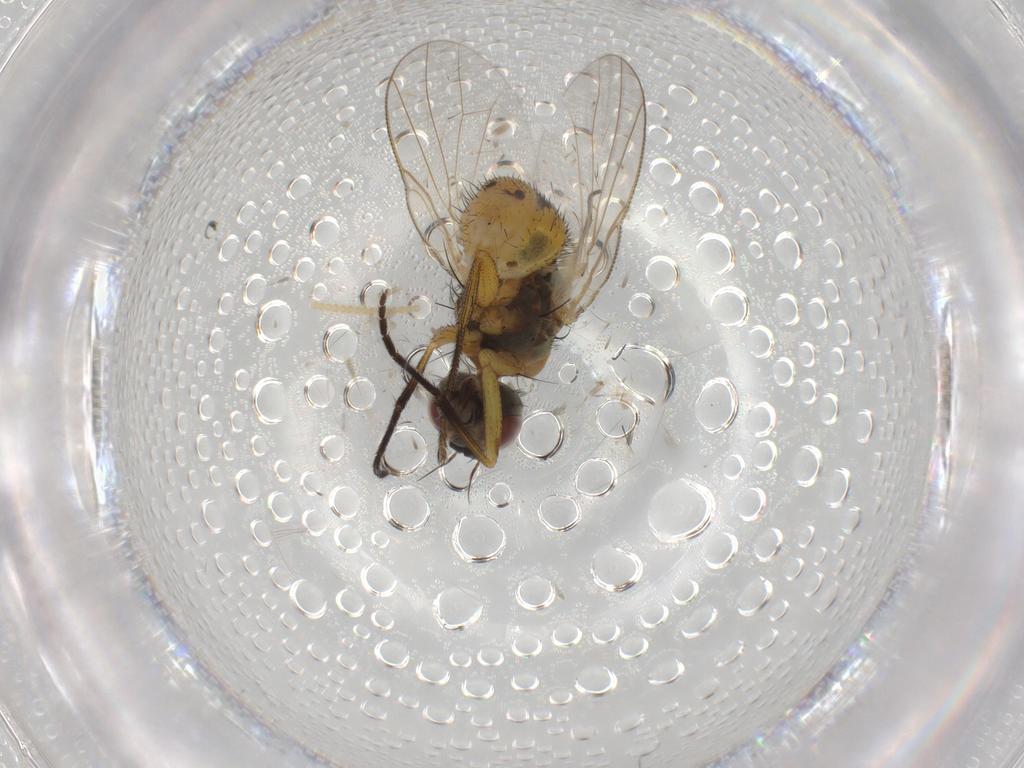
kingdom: Animalia
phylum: Arthropoda
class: Insecta
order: Diptera
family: Muscidae
